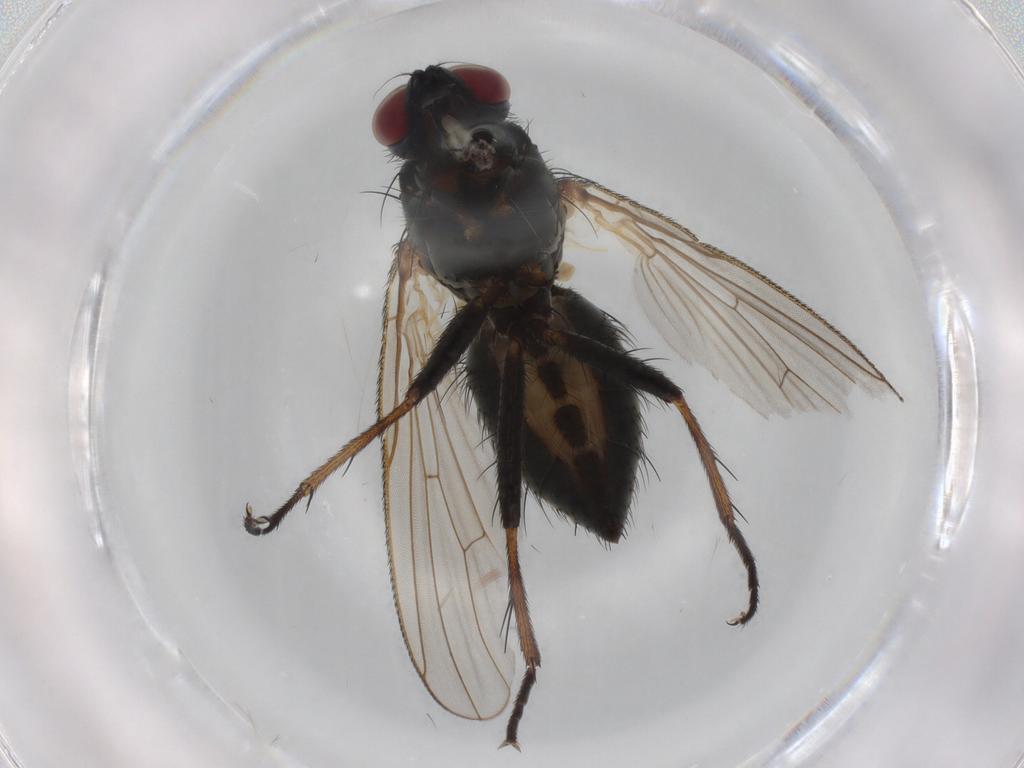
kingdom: Animalia
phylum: Arthropoda
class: Insecta
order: Diptera
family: Muscidae
